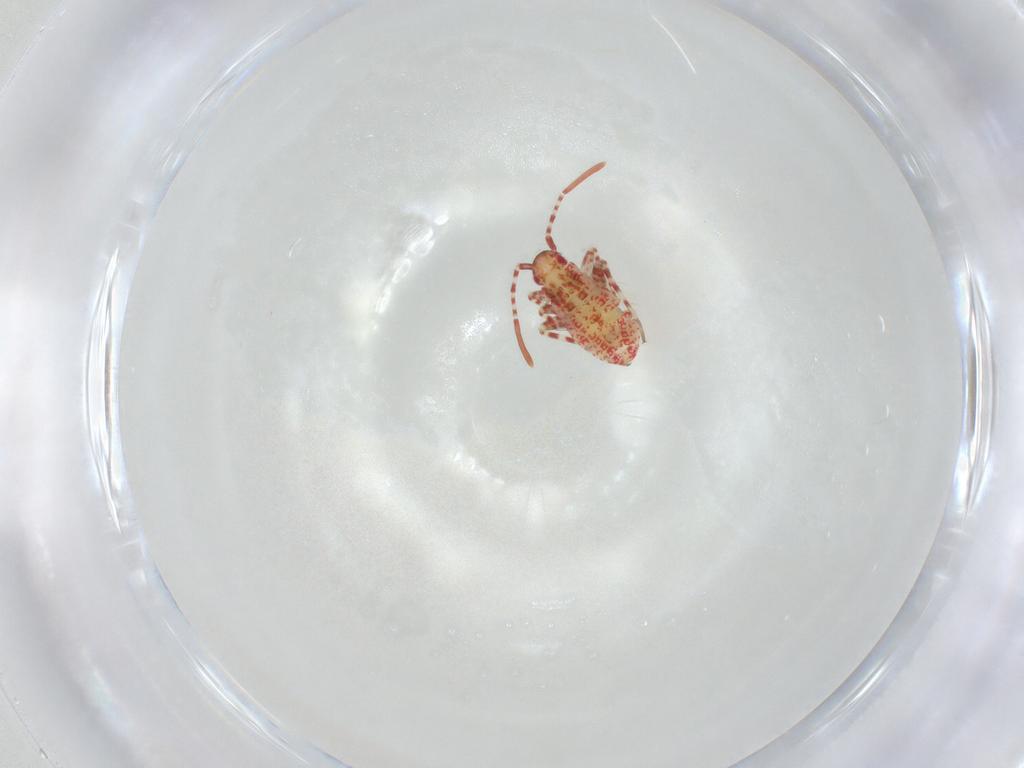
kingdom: Animalia
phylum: Arthropoda
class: Insecta
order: Hemiptera
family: Miridae
